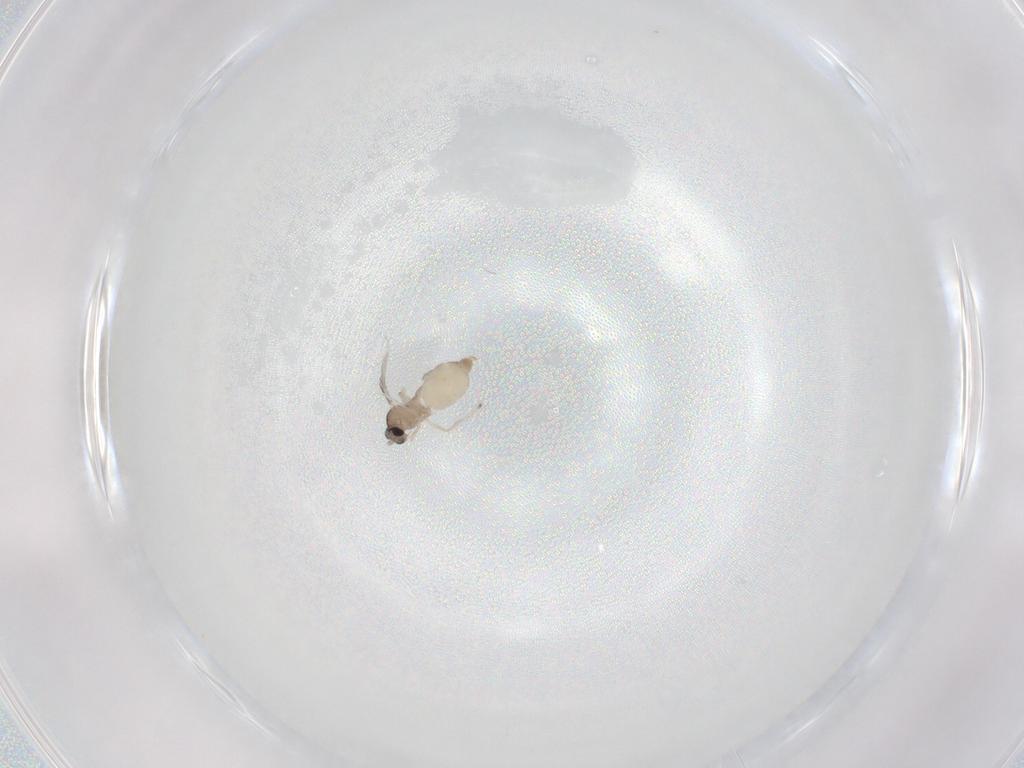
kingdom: Animalia
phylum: Arthropoda
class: Insecta
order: Diptera
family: Cecidomyiidae
